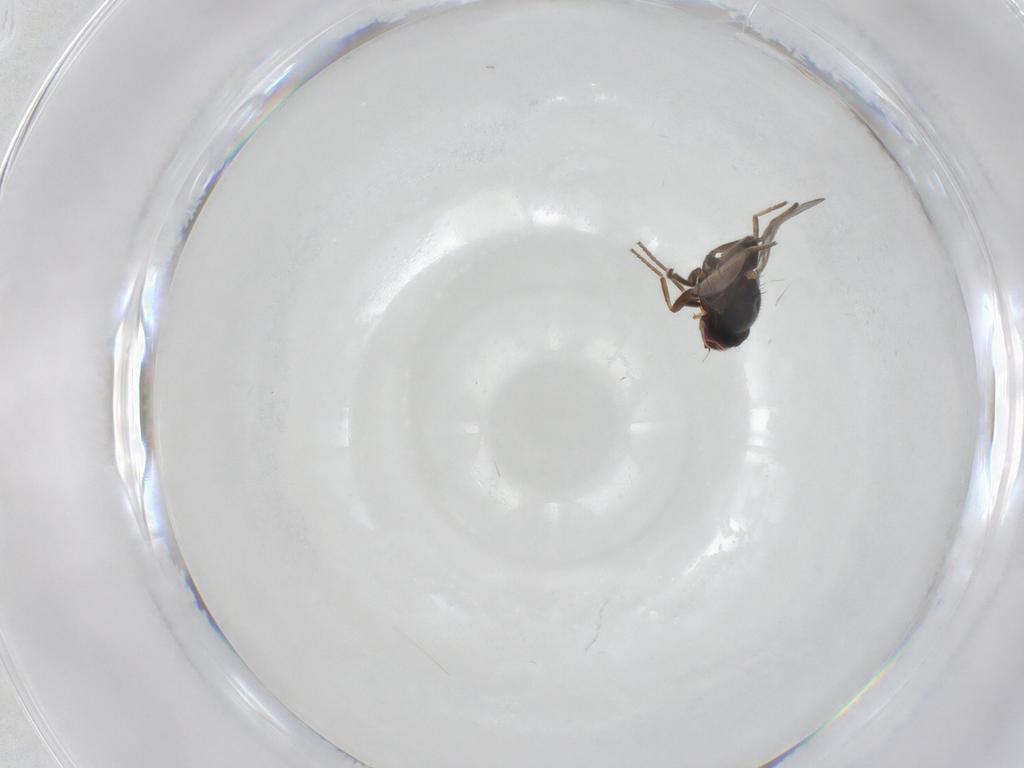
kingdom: Animalia
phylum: Arthropoda
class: Insecta
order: Diptera
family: Chloropidae
